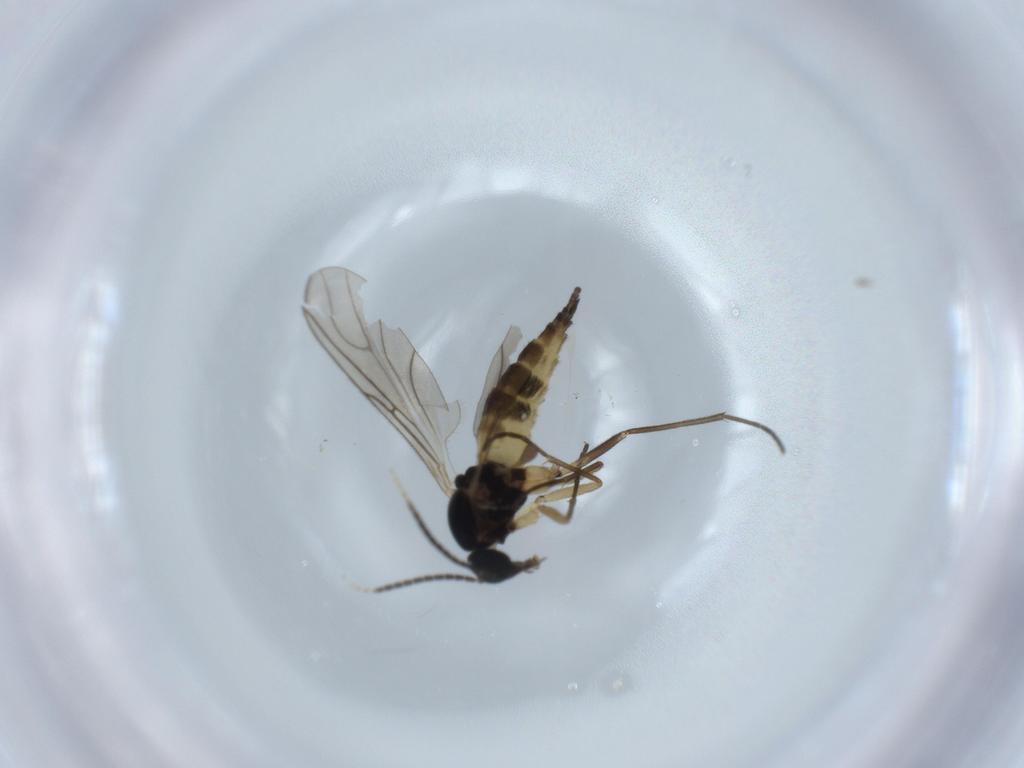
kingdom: Animalia
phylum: Arthropoda
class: Insecta
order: Diptera
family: Sciaridae
